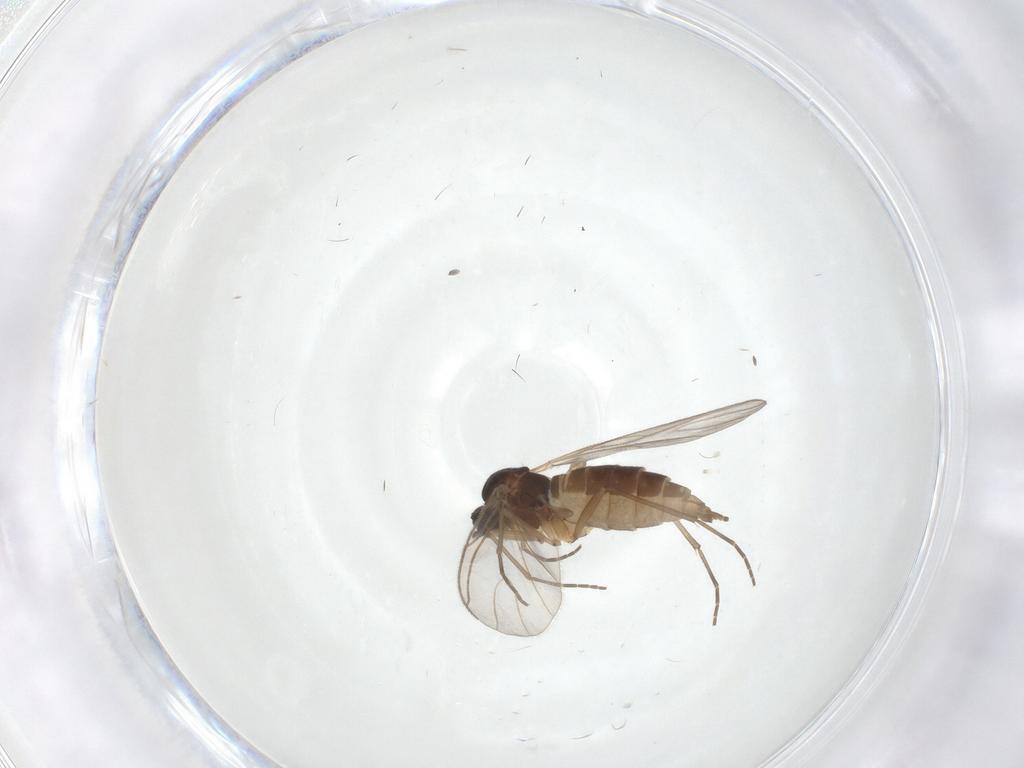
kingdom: Animalia
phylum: Arthropoda
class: Insecta
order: Diptera
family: Sciaridae
